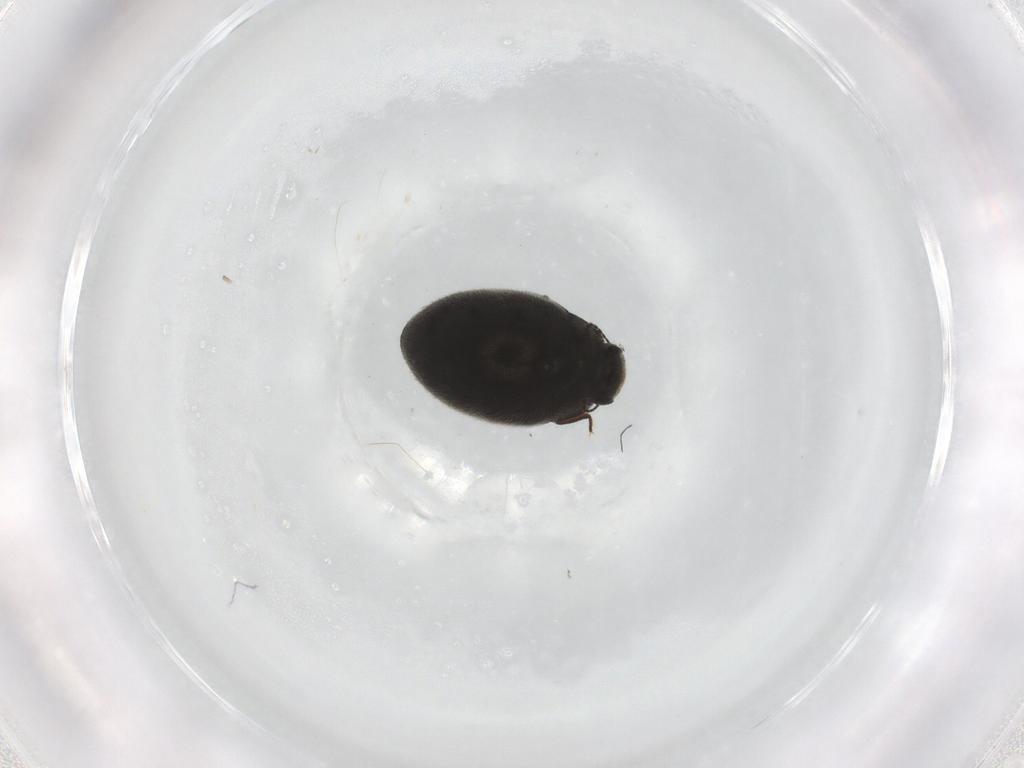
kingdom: Animalia
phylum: Arthropoda
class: Insecta
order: Coleoptera
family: Limnichidae
